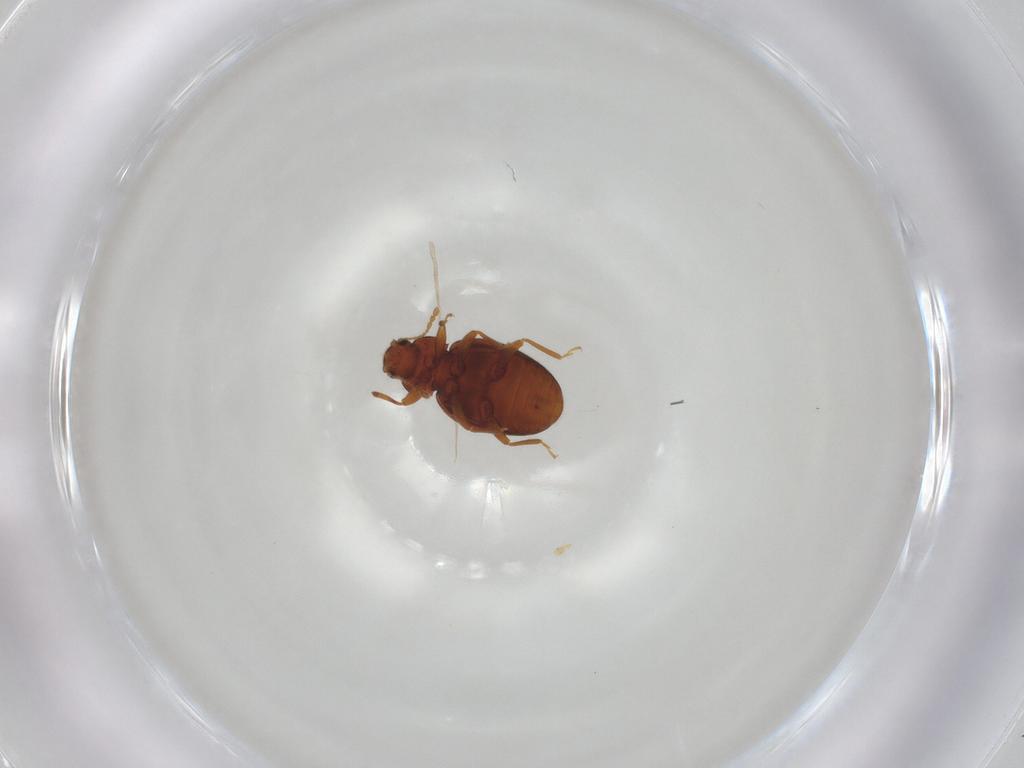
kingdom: Animalia
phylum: Arthropoda
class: Insecta
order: Coleoptera
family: Latridiidae
